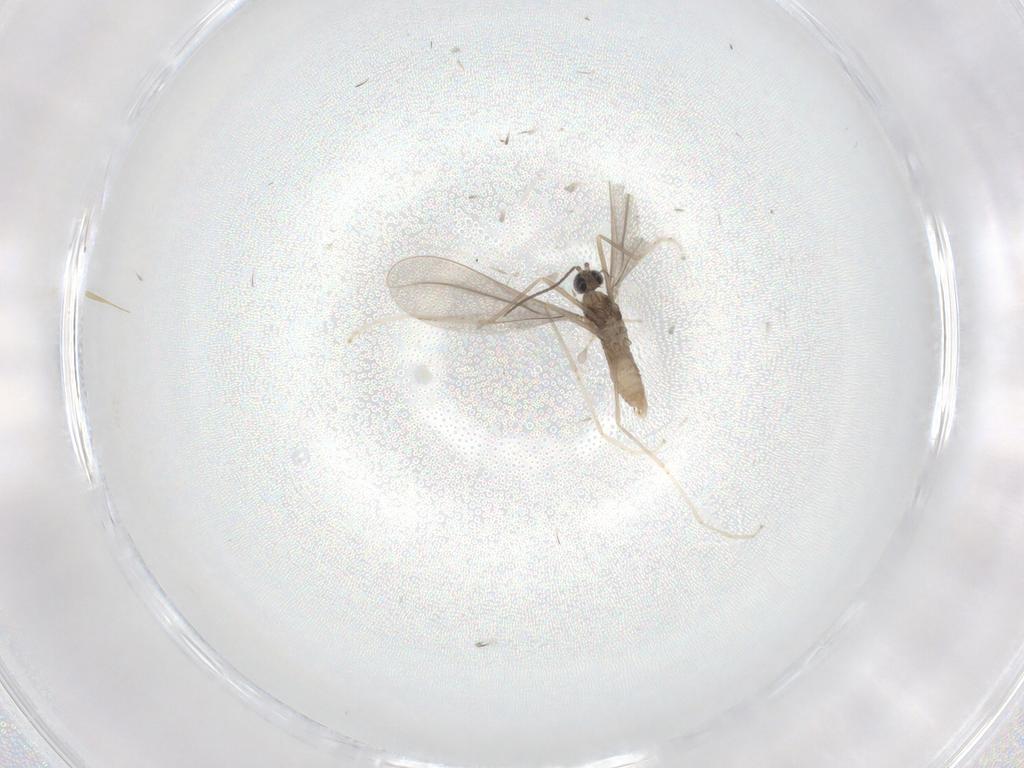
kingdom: Animalia
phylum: Arthropoda
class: Insecta
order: Diptera
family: Cecidomyiidae
